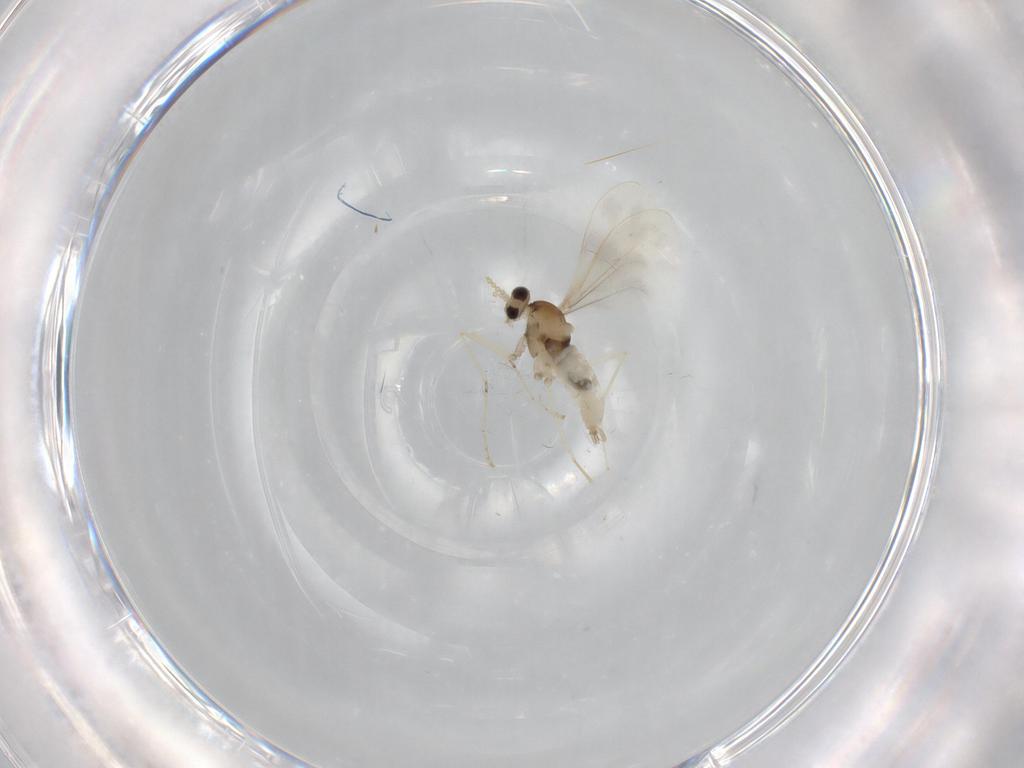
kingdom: Animalia
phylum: Arthropoda
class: Insecta
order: Diptera
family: Cecidomyiidae
